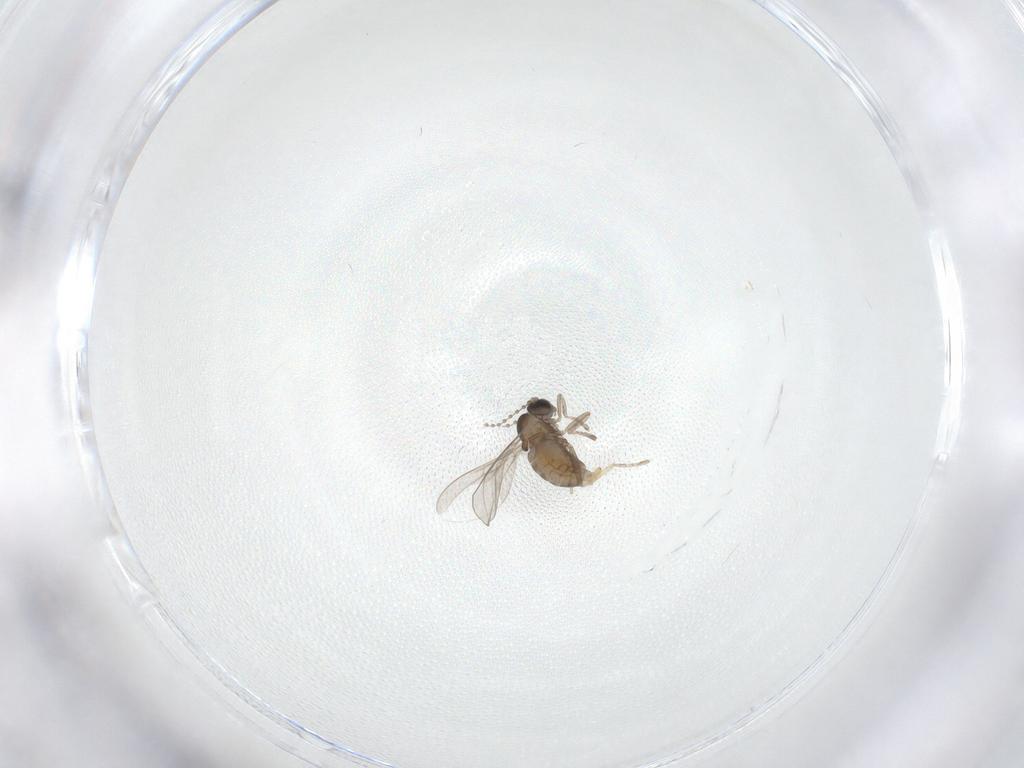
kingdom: Animalia
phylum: Arthropoda
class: Insecta
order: Diptera
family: Cecidomyiidae
